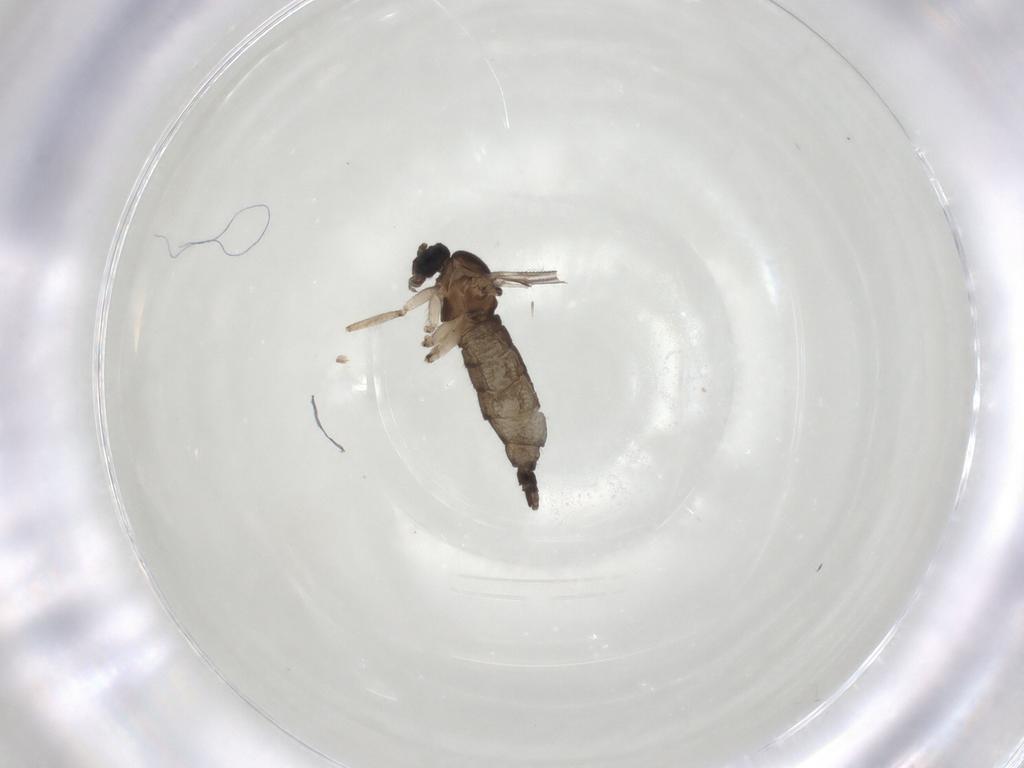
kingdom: Animalia
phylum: Arthropoda
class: Insecta
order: Diptera
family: Sciaridae
